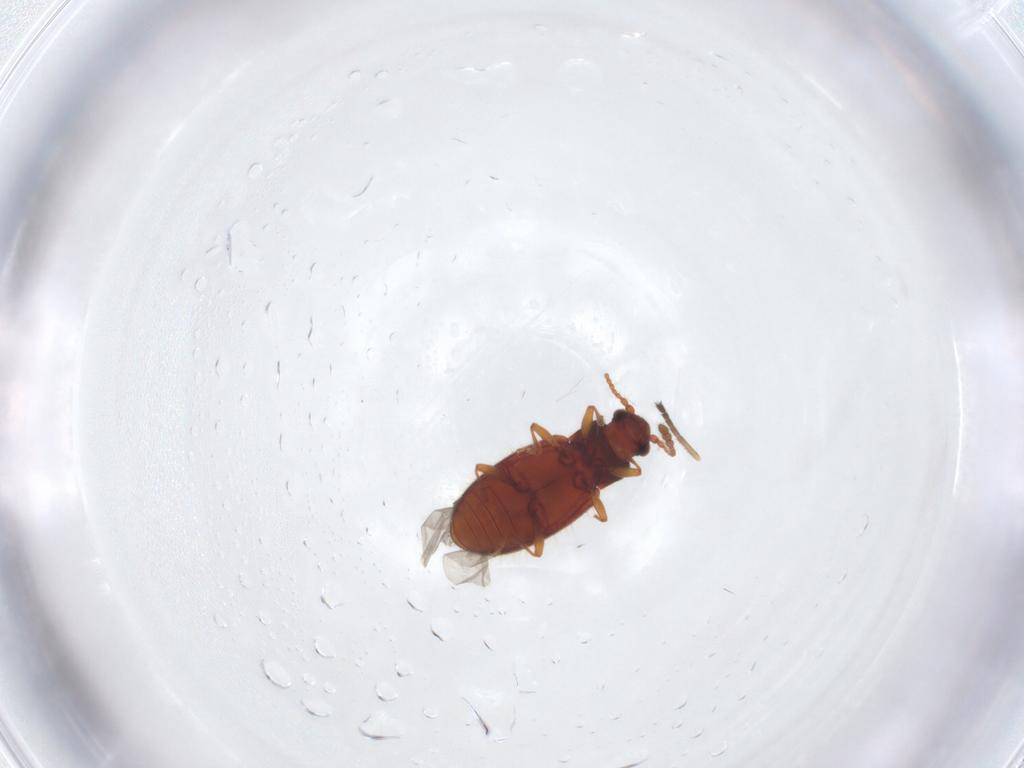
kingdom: Animalia
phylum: Arthropoda
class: Insecta
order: Coleoptera
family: Cryptophagidae
